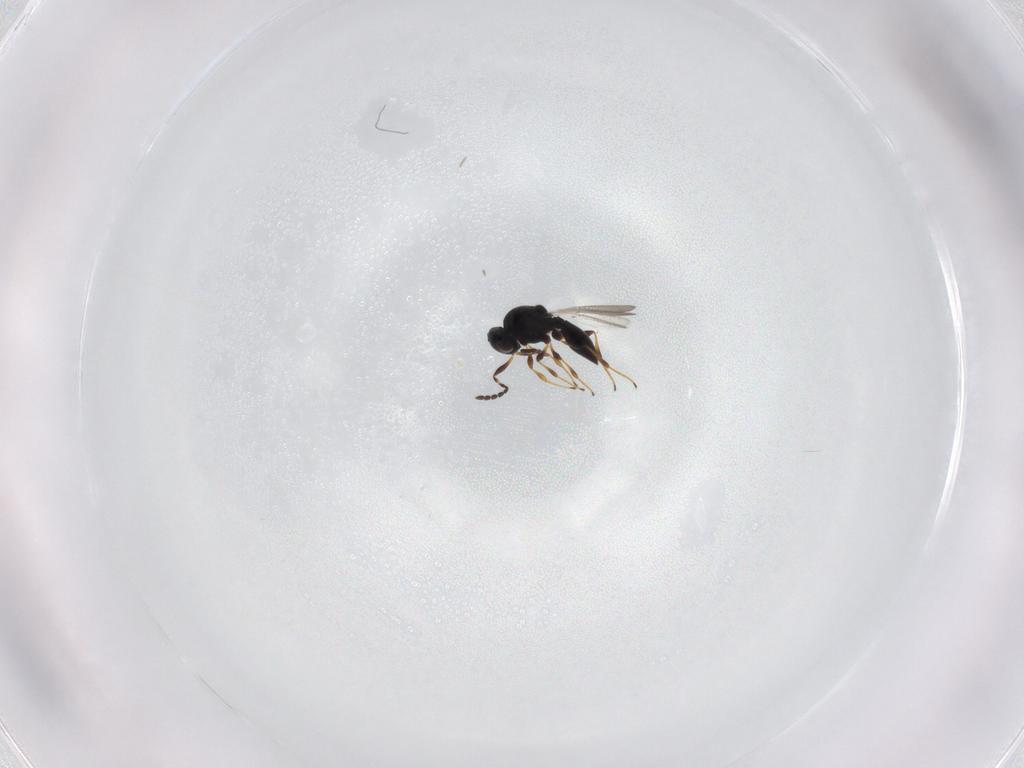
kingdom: Animalia
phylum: Arthropoda
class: Insecta
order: Hymenoptera
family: Platygastridae
